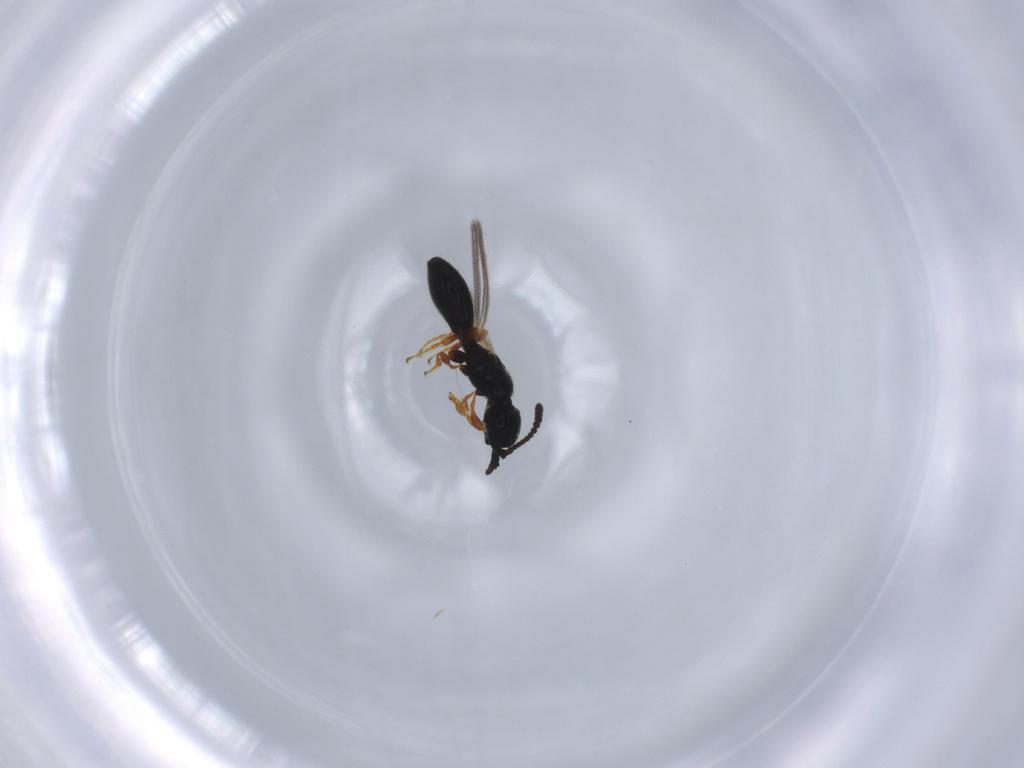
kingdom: Animalia
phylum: Arthropoda
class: Insecta
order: Hymenoptera
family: Diapriidae
